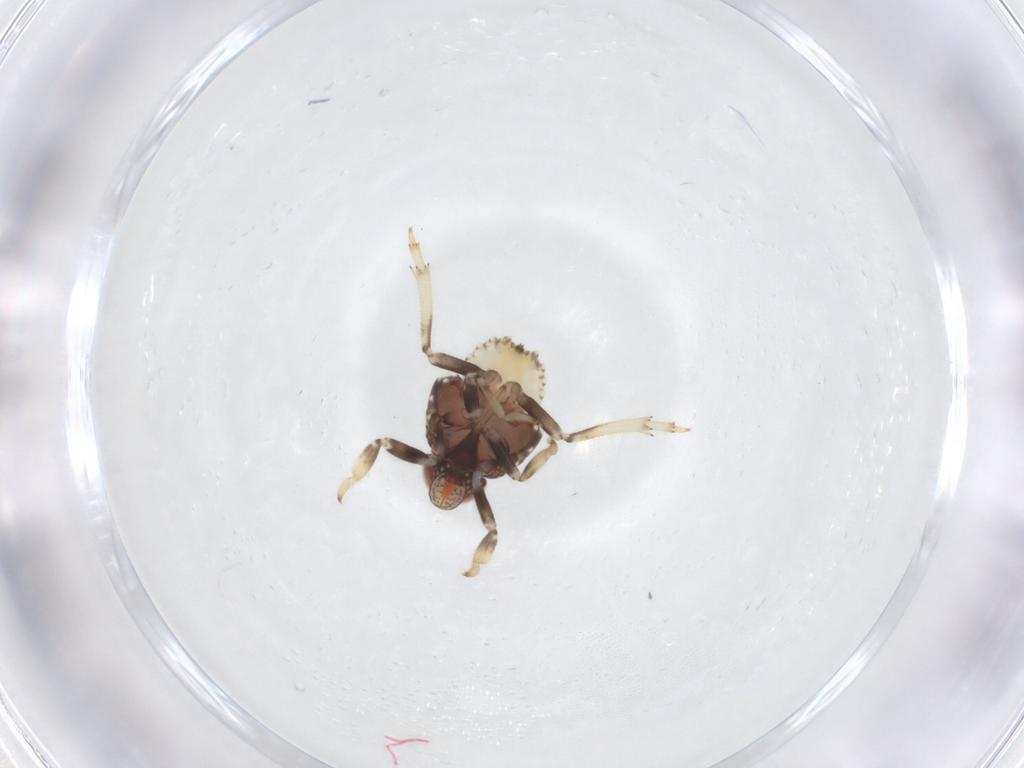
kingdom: Animalia
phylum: Arthropoda
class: Insecta
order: Hemiptera
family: Issidae
